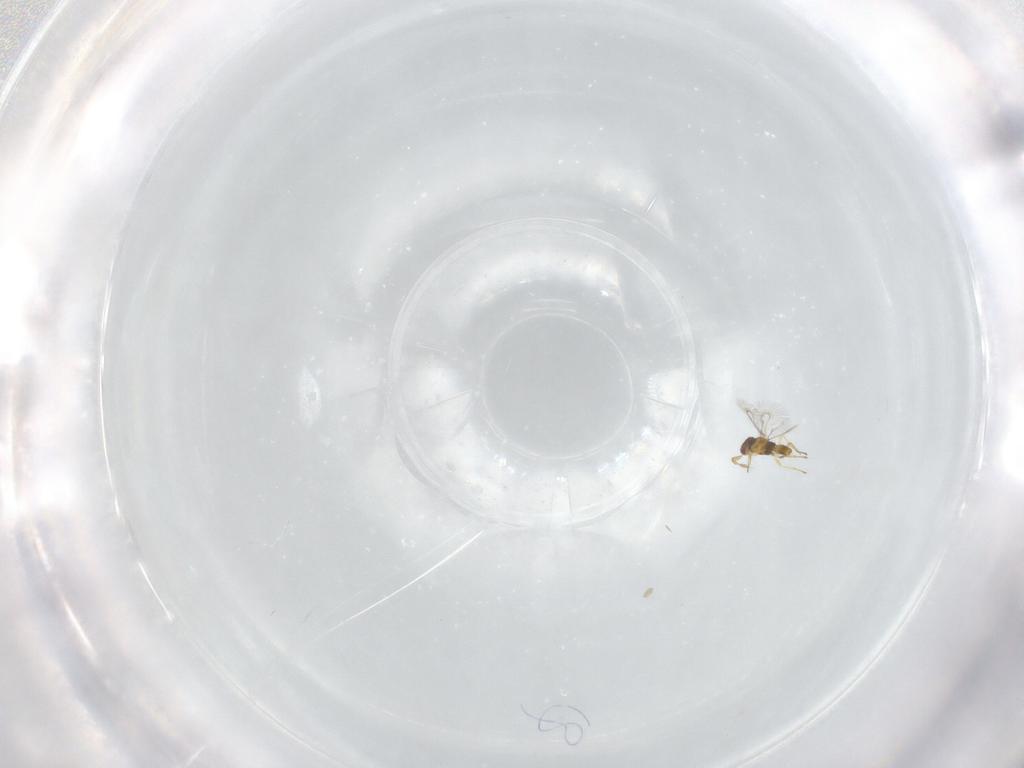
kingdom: Animalia
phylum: Arthropoda
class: Insecta
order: Hymenoptera
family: Eulophidae
